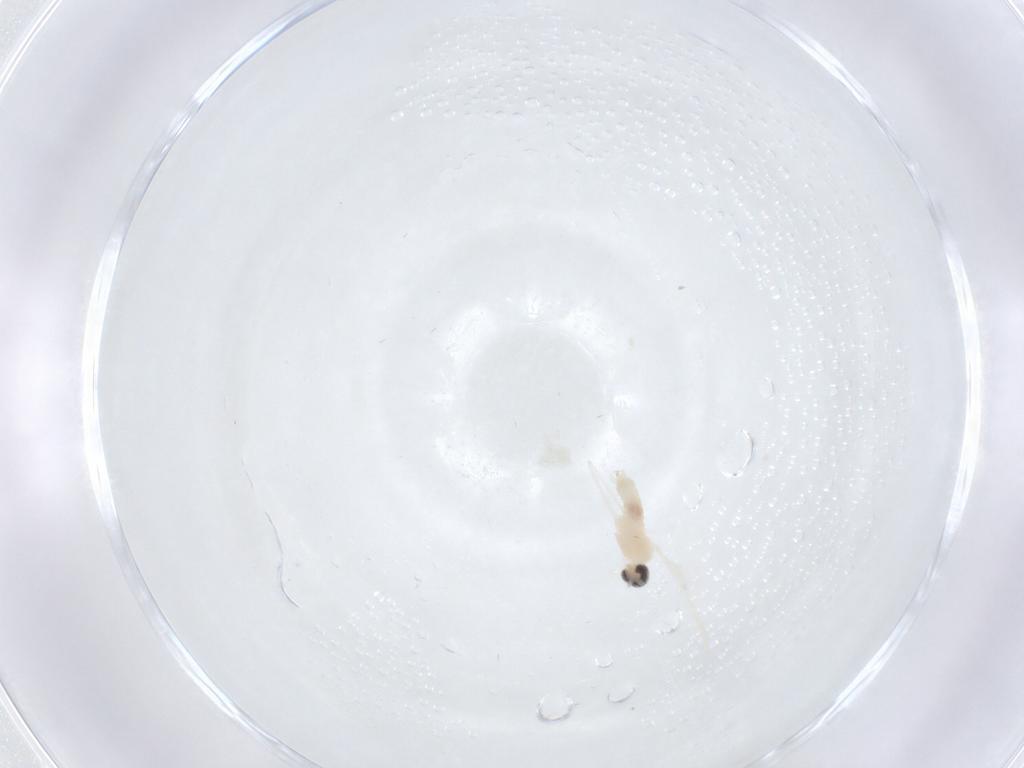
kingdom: Animalia
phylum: Arthropoda
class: Insecta
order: Diptera
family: Cecidomyiidae
